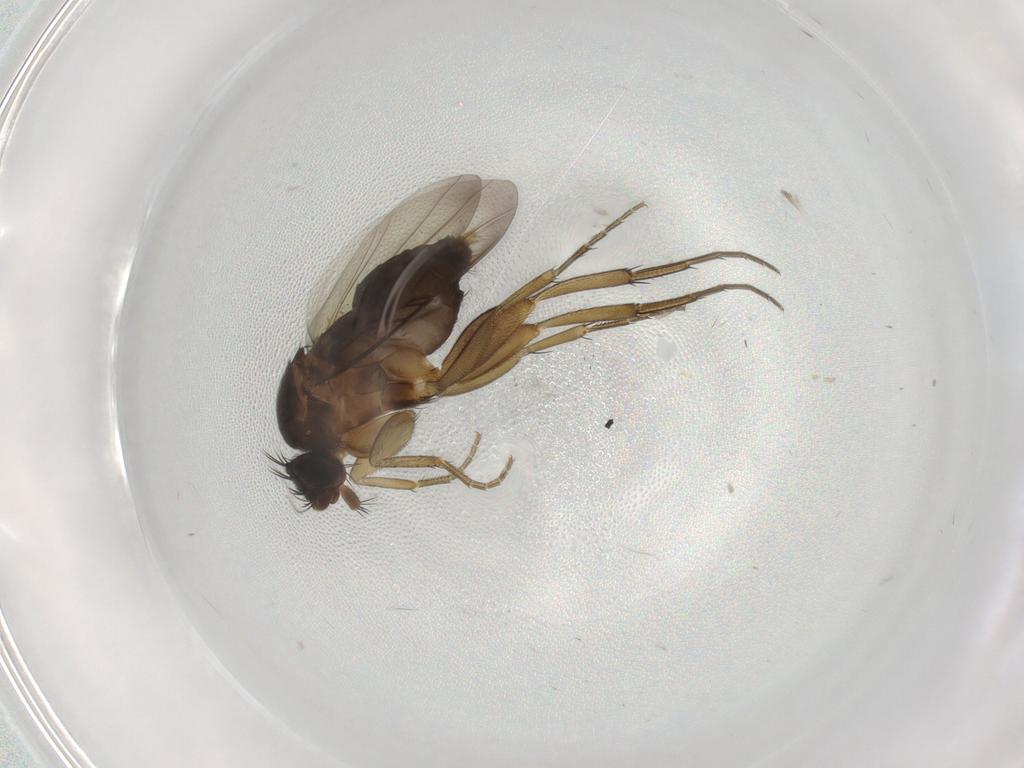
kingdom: Animalia
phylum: Arthropoda
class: Insecta
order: Diptera
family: Phoridae
